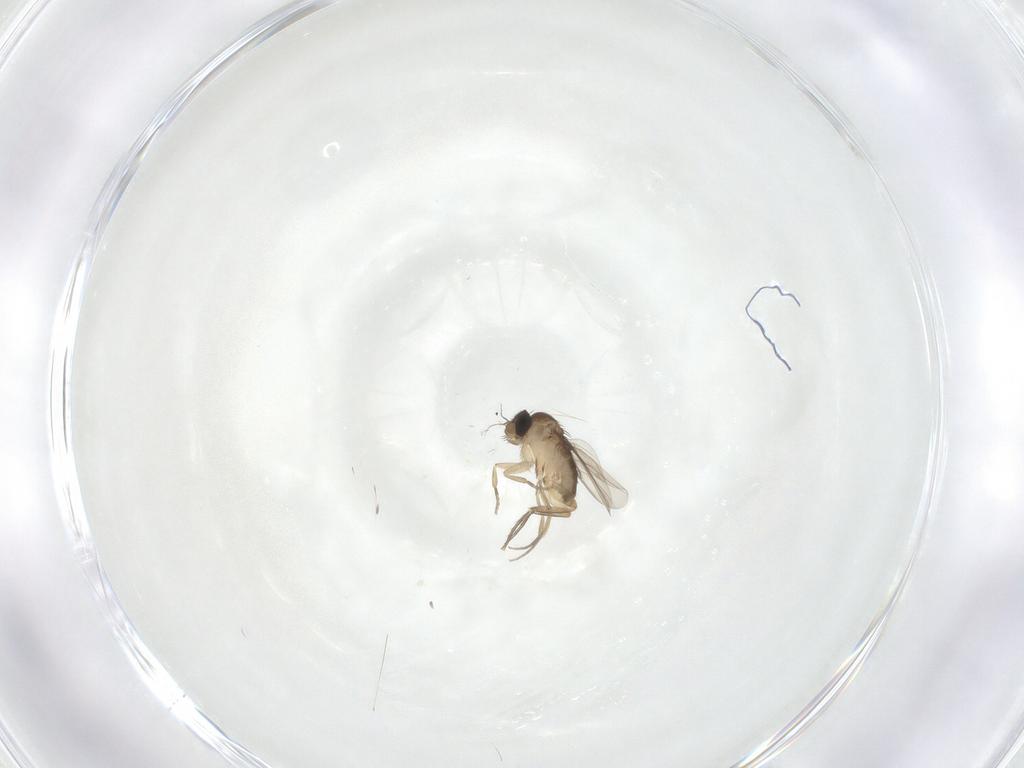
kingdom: Animalia
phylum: Arthropoda
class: Insecta
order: Diptera
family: Phoridae
